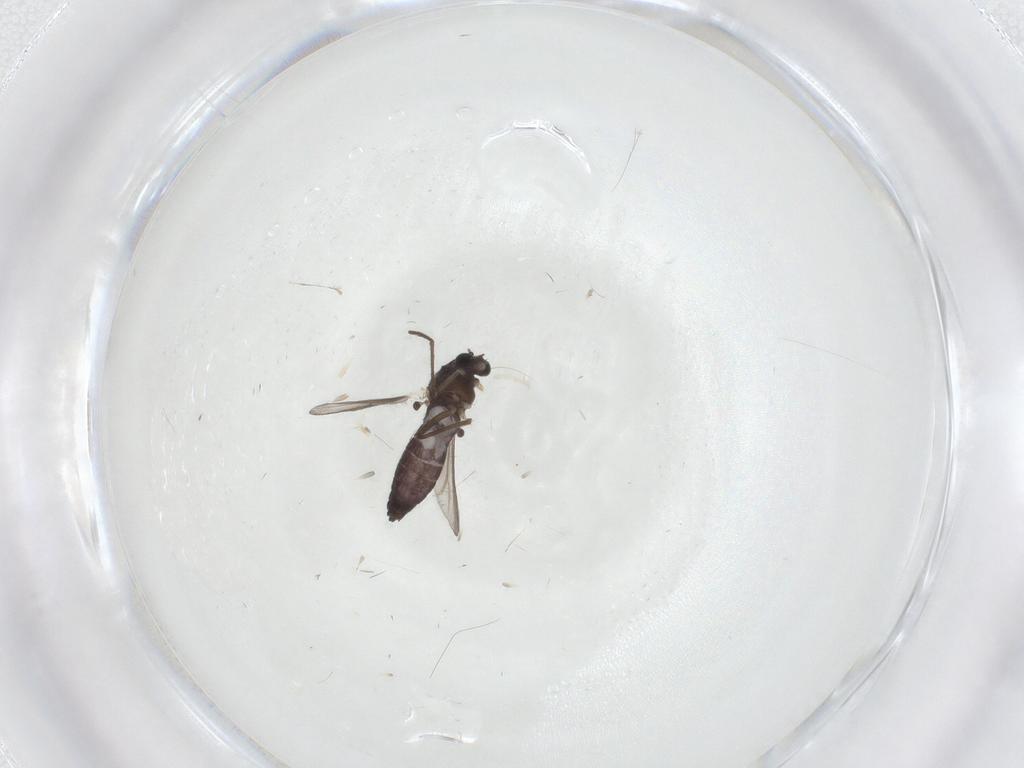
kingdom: Animalia
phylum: Arthropoda
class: Insecta
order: Diptera
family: Chironomidae
